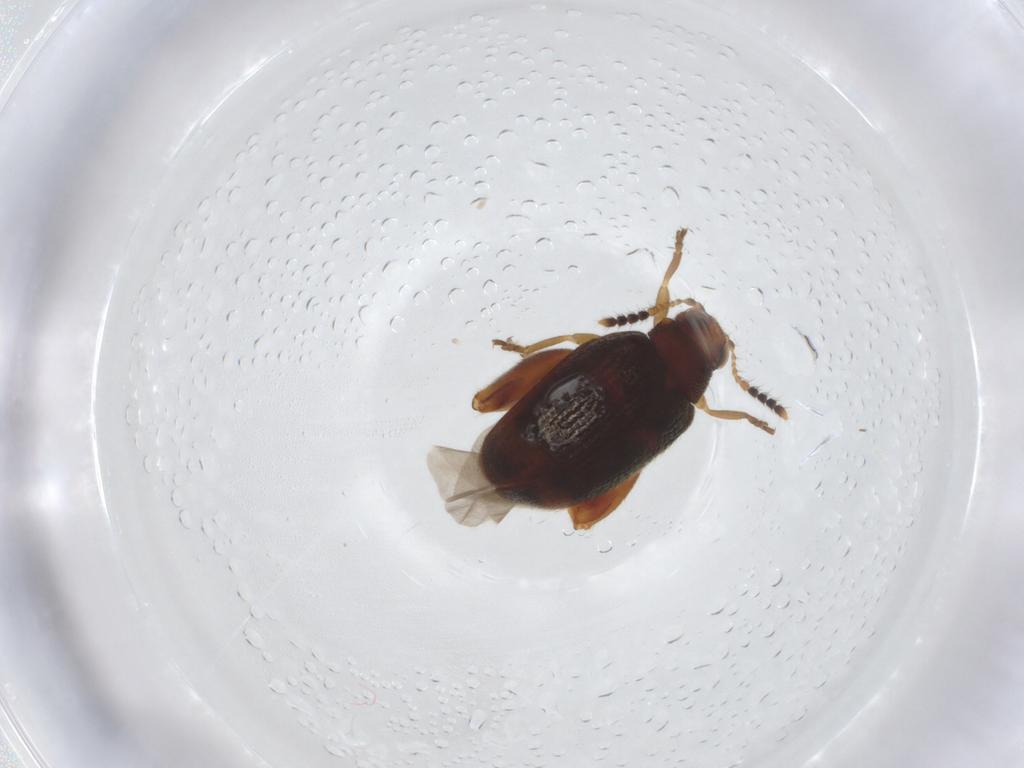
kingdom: Animalia
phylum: Arthropoda
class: Insecta
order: Coleoptera
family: Chrysomelidae
